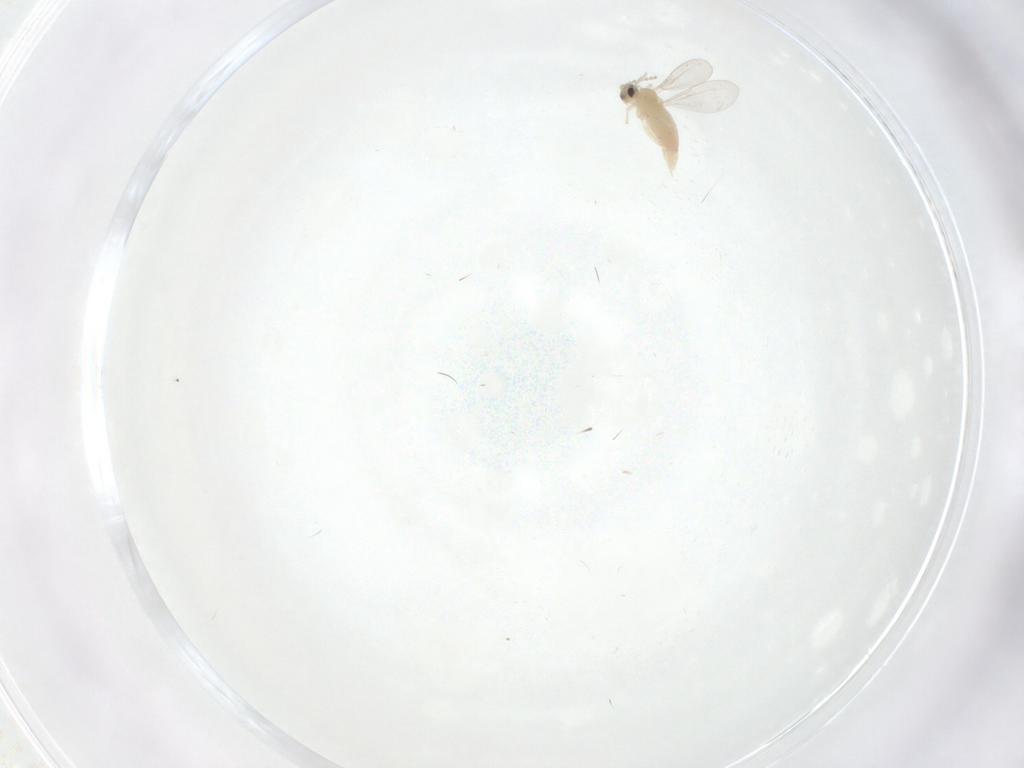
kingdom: Animalia
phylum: Arthropoda
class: Insecta
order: Diptera
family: Cecidomyiidae
